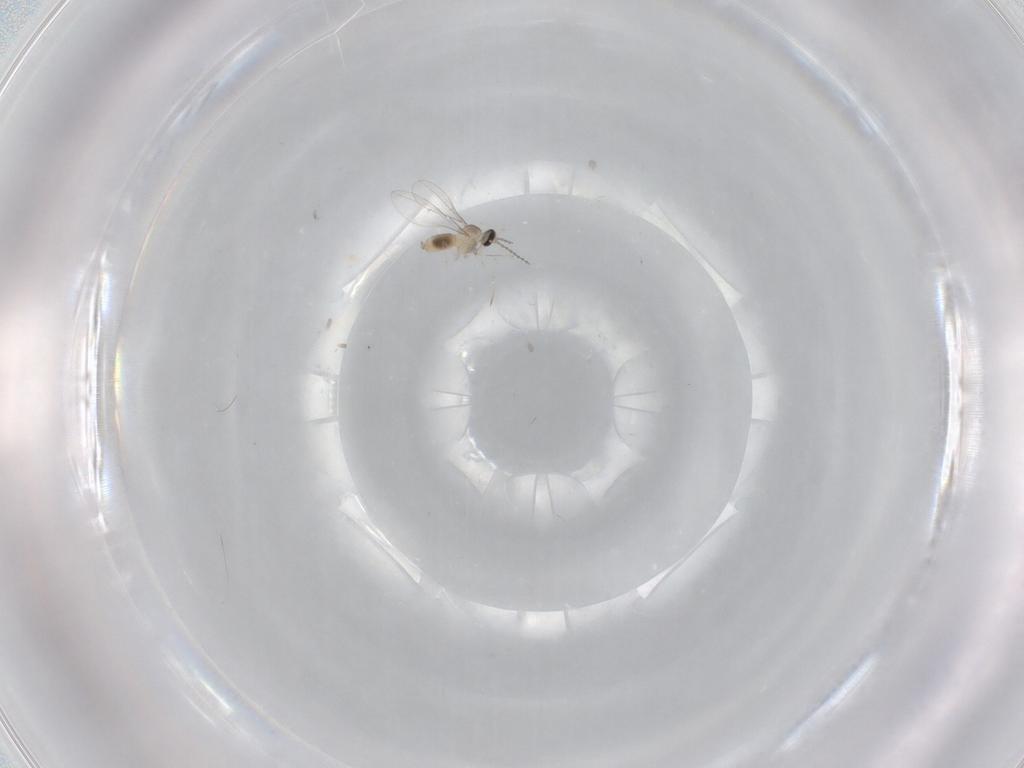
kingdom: Animalia
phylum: Arthropoda
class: Insecta
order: Diptera
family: Cecidomyiidae
